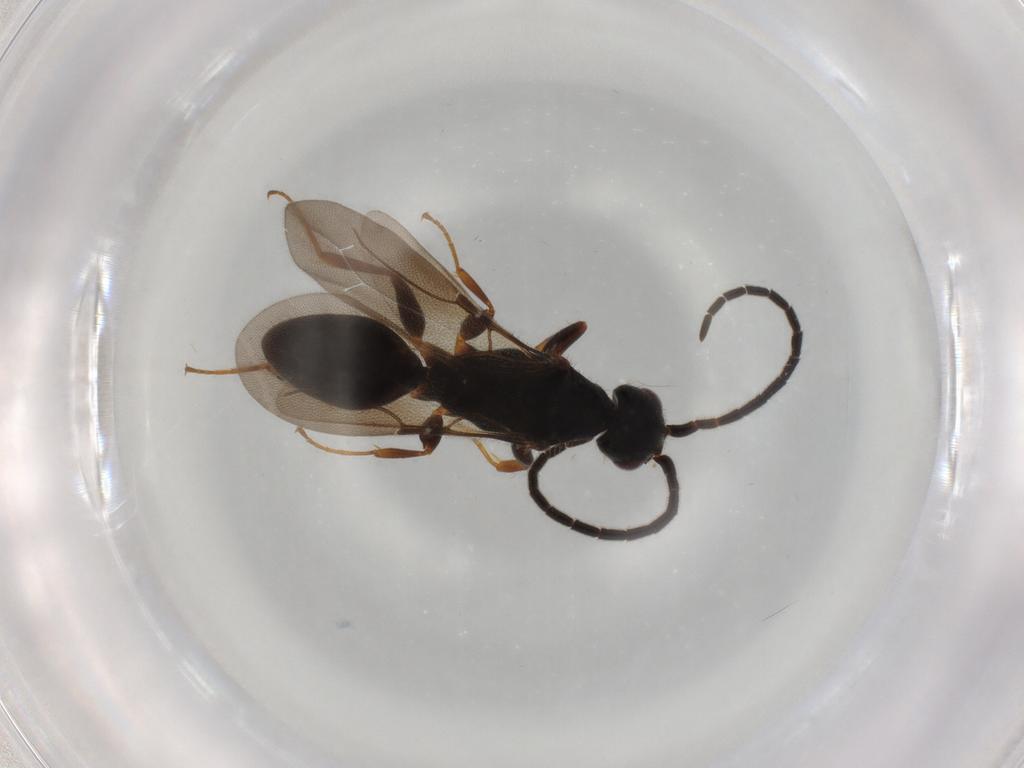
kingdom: Animalia
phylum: Arthropoda
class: Insecta
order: Hymenoptera
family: Bethylidae
